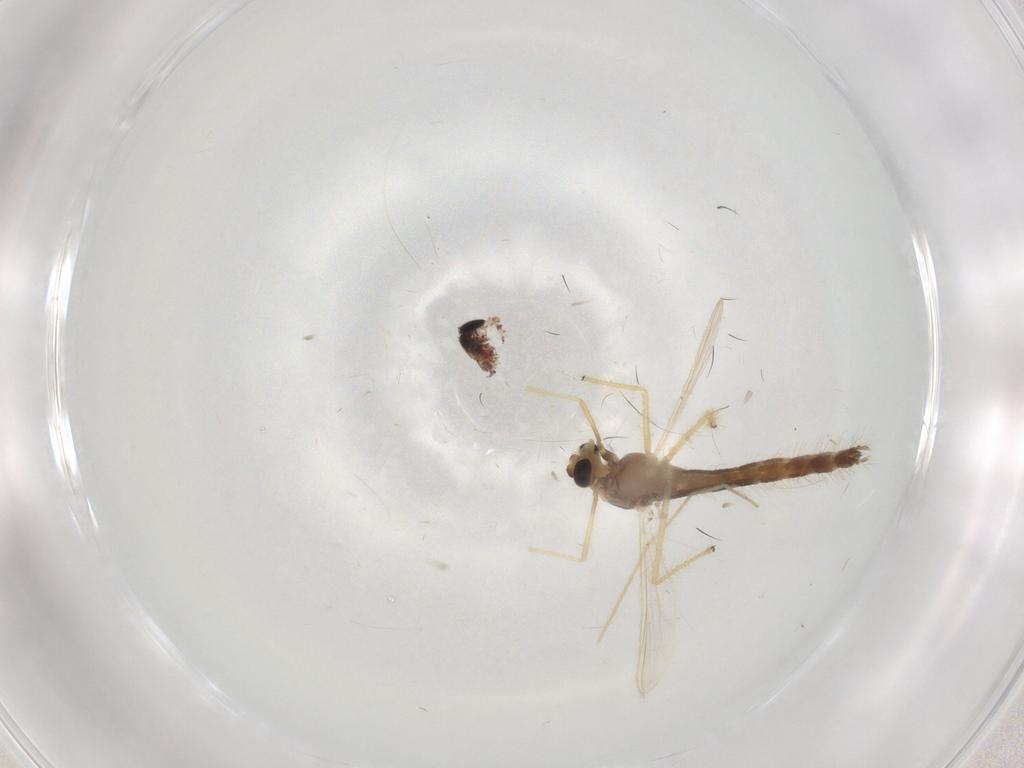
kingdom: Animalia
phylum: Arthropoda
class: Insecta
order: Diptera
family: Chironomidae
